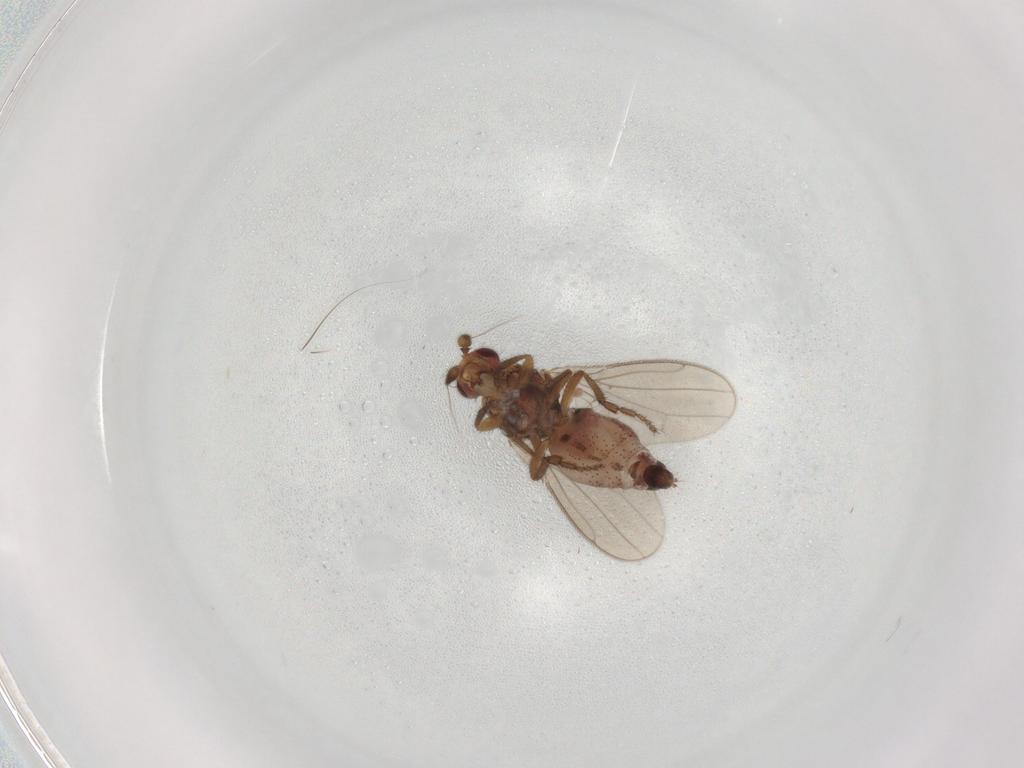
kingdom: Animalia
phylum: Arthropoda
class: Insecta
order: Diptera
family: Sphaeroceridae
